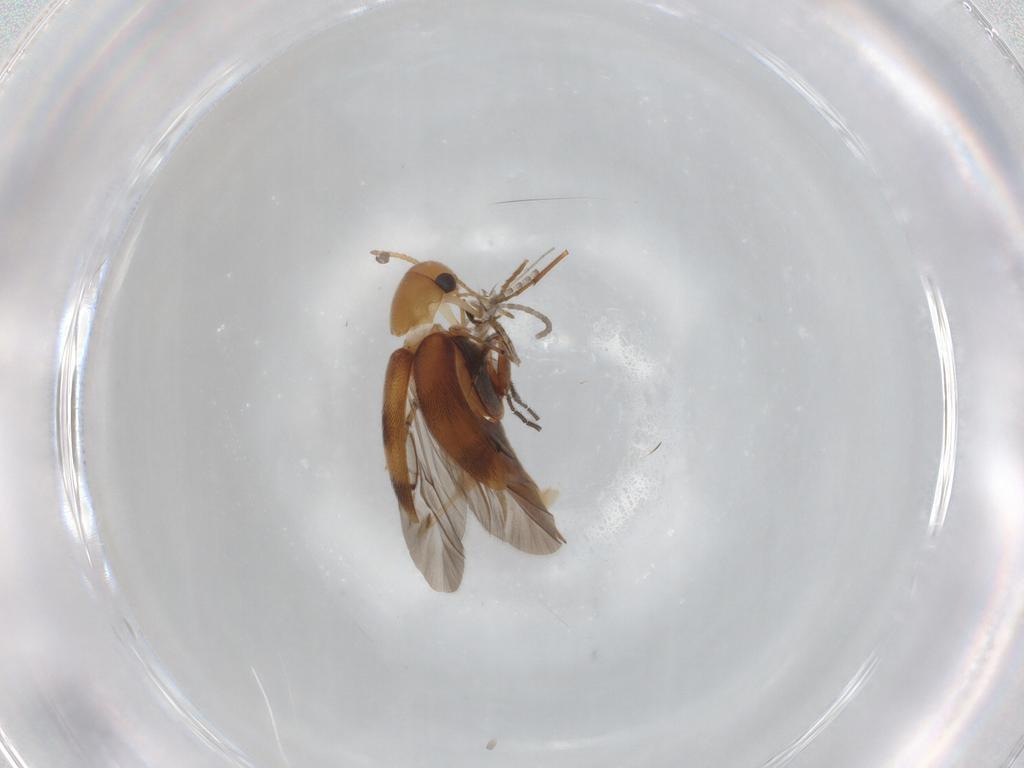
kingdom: Animalia
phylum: Arthropoda
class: Insecta
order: Coleoptera
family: Mordellidae
